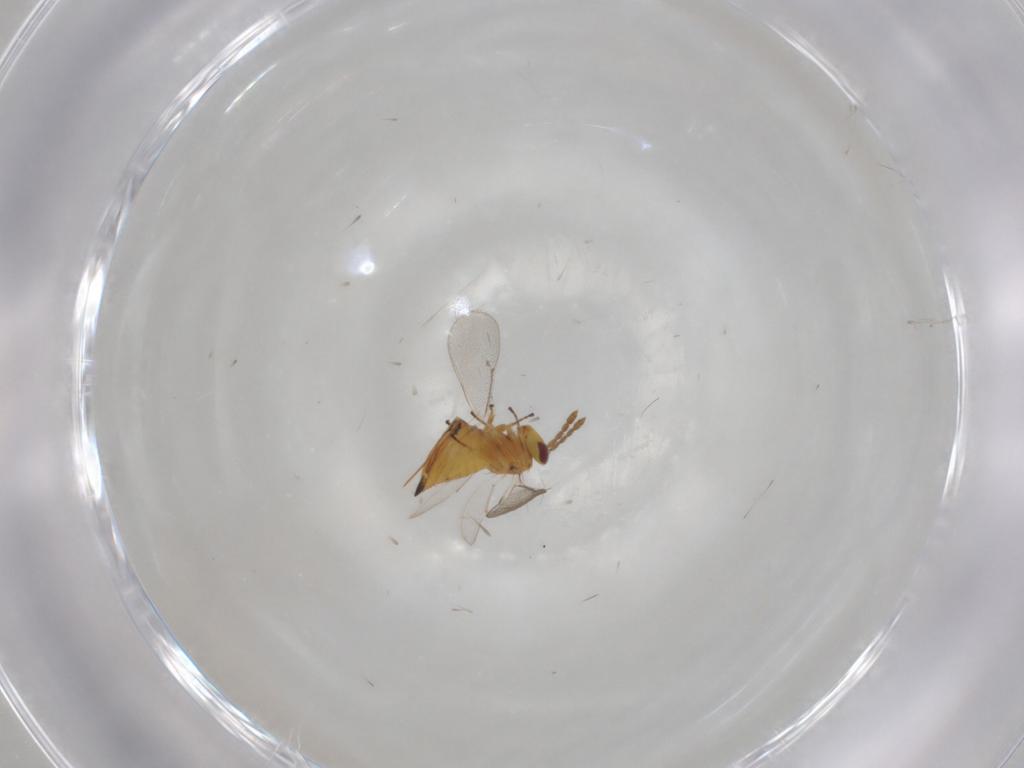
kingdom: Animalia
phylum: Arthropoda
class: Insecta
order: Hymenoptera
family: Eulophidae
